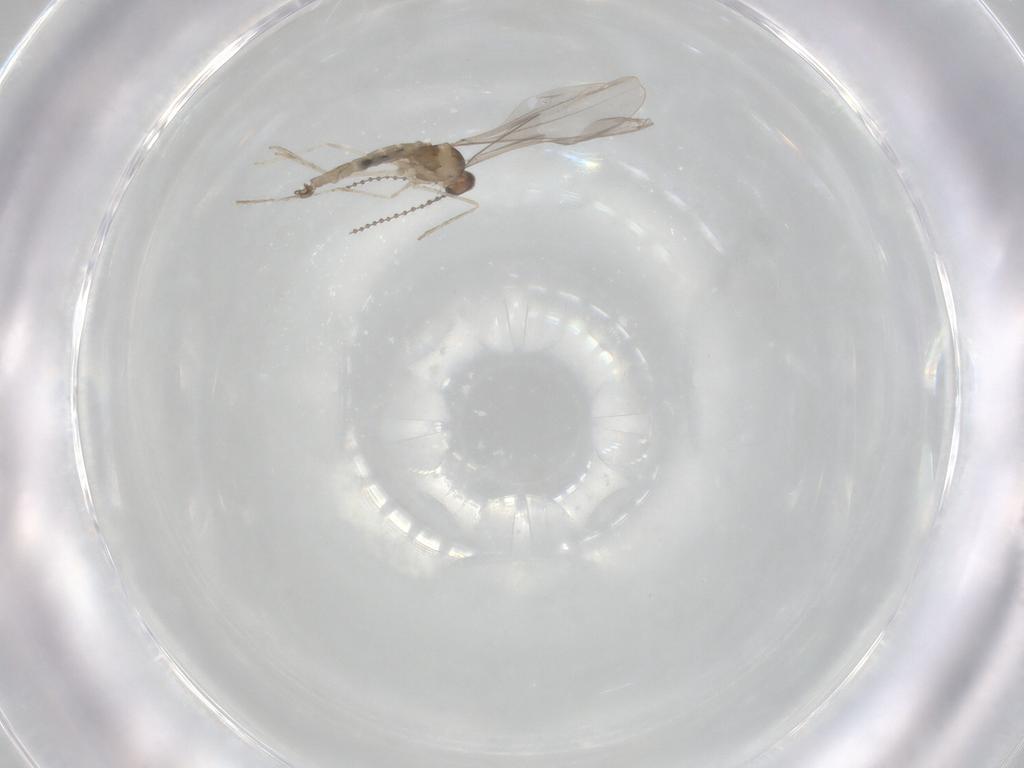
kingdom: Animalia
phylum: Arthropoda
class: Insecta
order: Diptera
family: Cecidomyiidae
